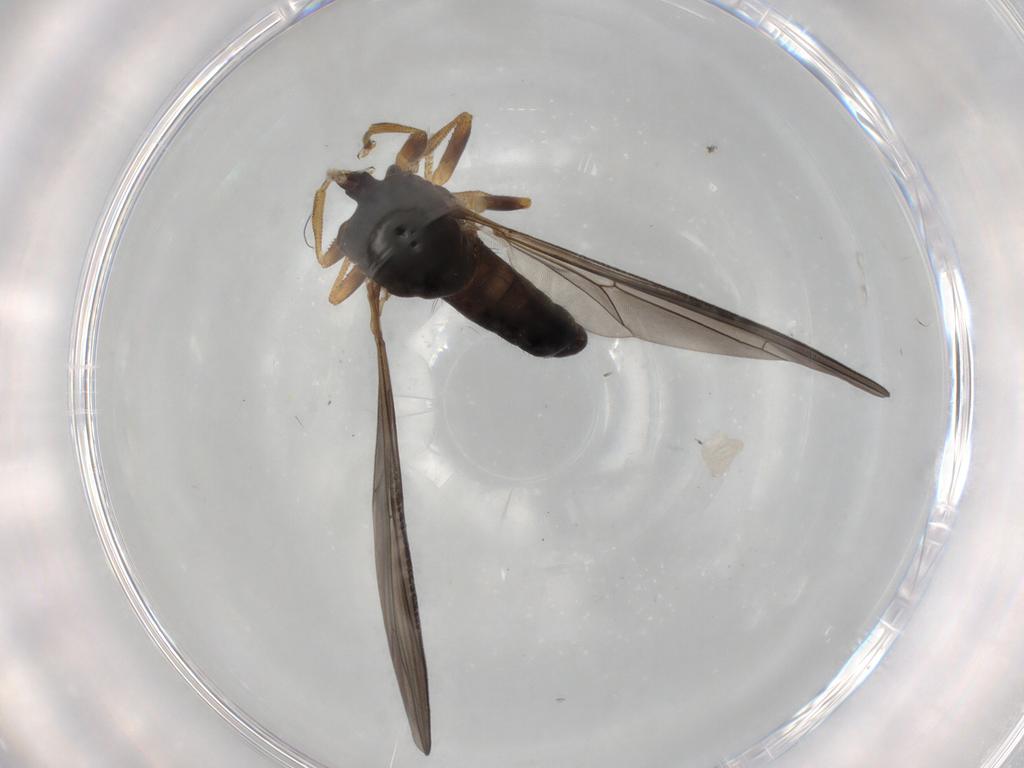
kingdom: Animalia
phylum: Arthropoda
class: Insecta
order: Diptera
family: Pipunculidae
